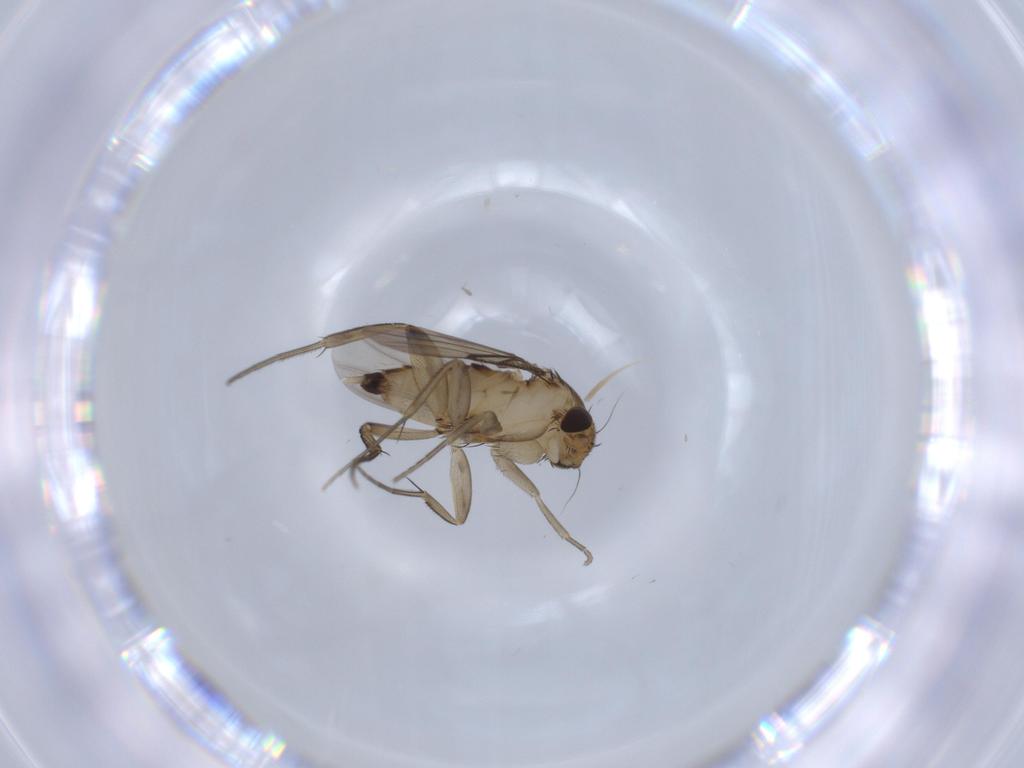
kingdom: Animalia
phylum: Arthropoda
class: Insecta
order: Diptera
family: Phoridae
